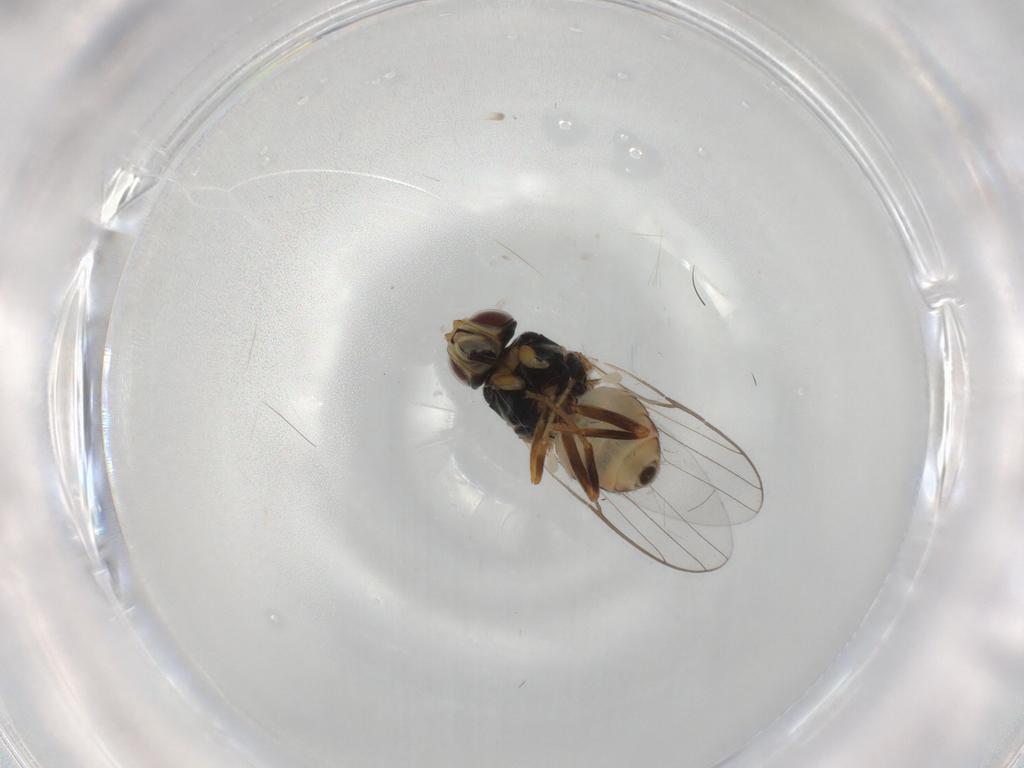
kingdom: Animalia
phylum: Arthropoda
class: Insecta
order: Diptera
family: Chloropidae
